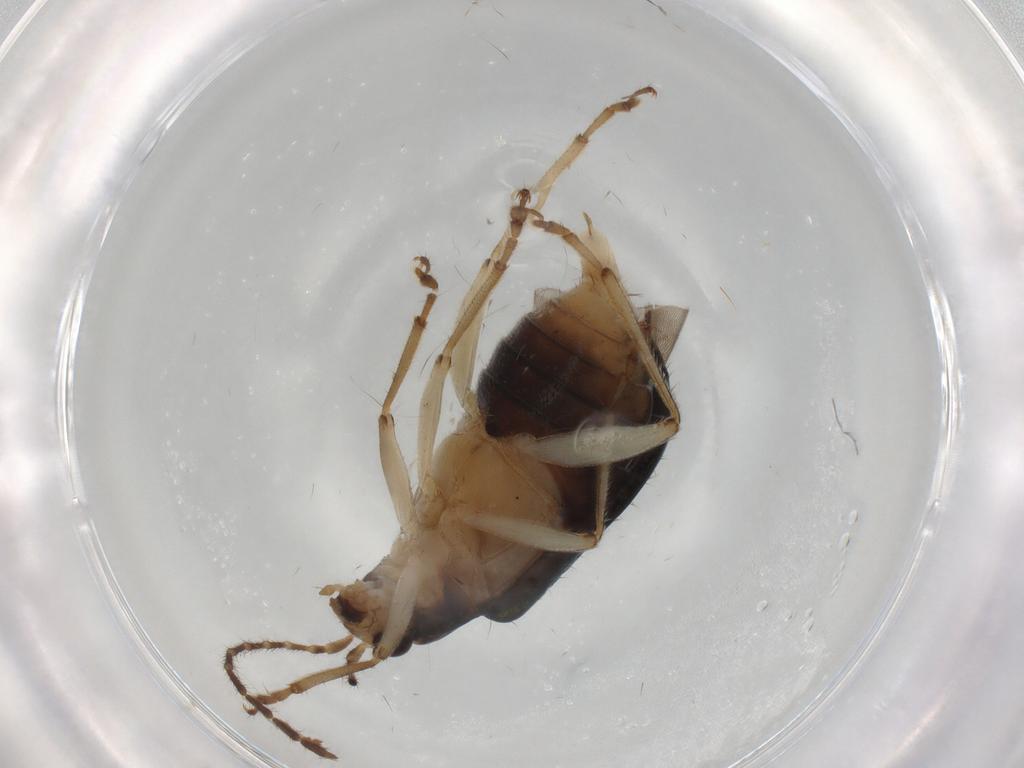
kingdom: Animalia
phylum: Arthropoda
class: Insecta
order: Coleoptera
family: Chrysomelidae
